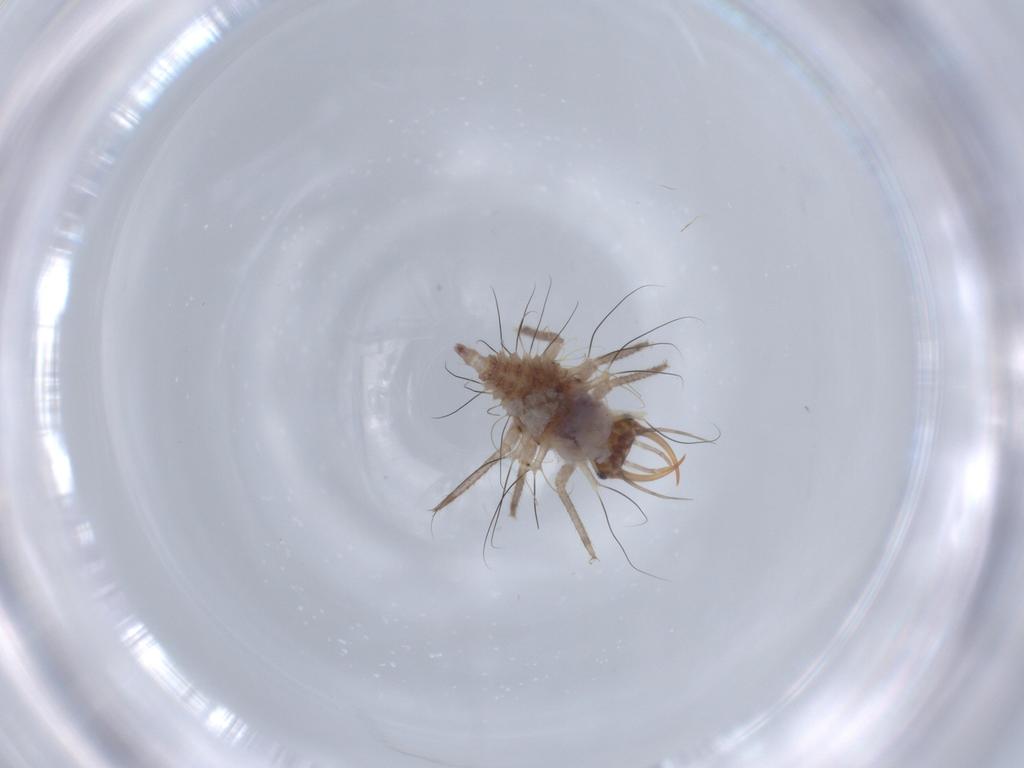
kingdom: Animalia
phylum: Arthropoda
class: Insecta
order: Neuroptera
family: Chrysopidae
